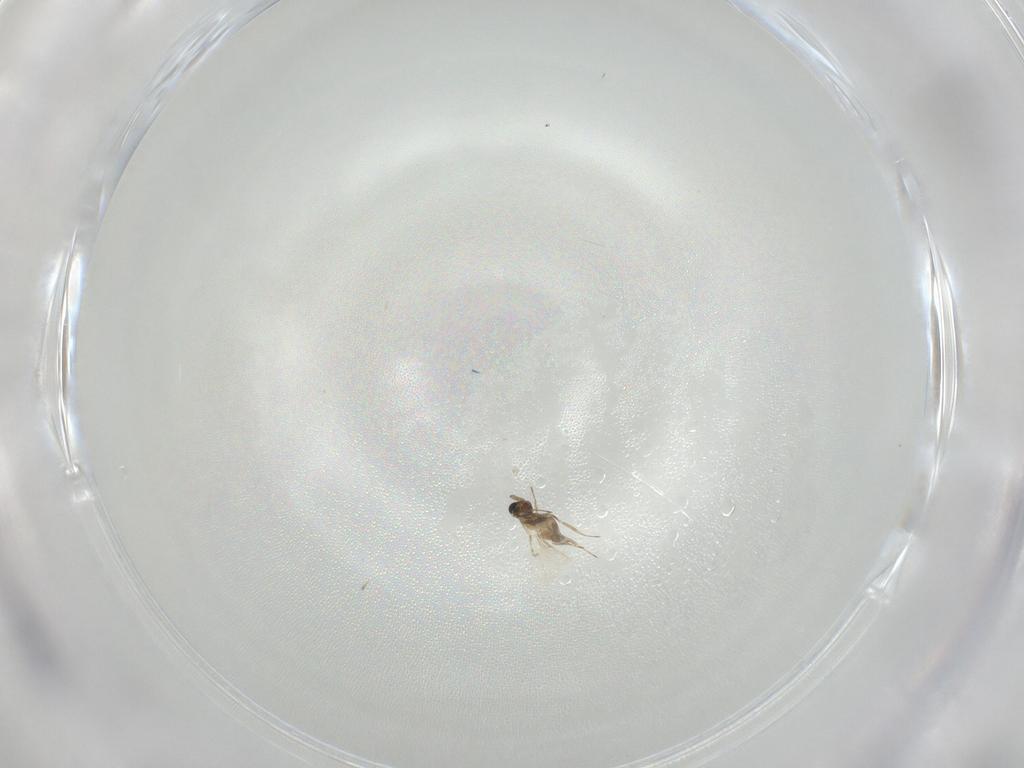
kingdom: Animalia
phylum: Arthropoda
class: Insecta
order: Hymenoptera
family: Trichogrammatidae
